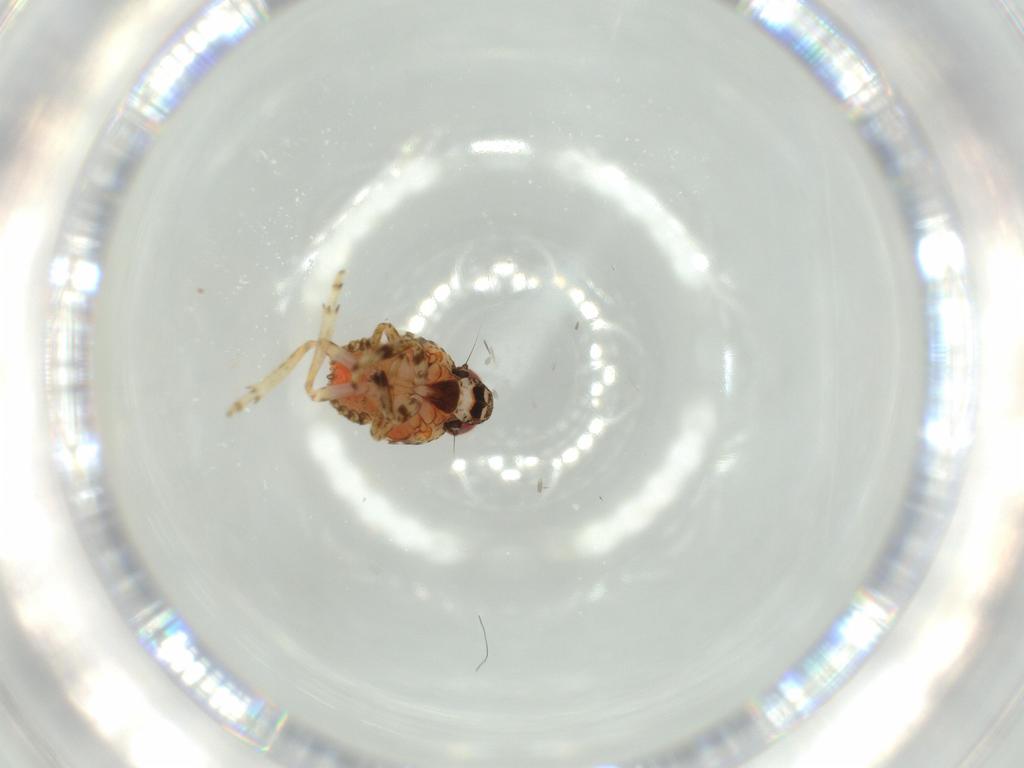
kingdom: Animalia
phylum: Arthropoda
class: Insecta
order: Hemiptera
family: Issidae
